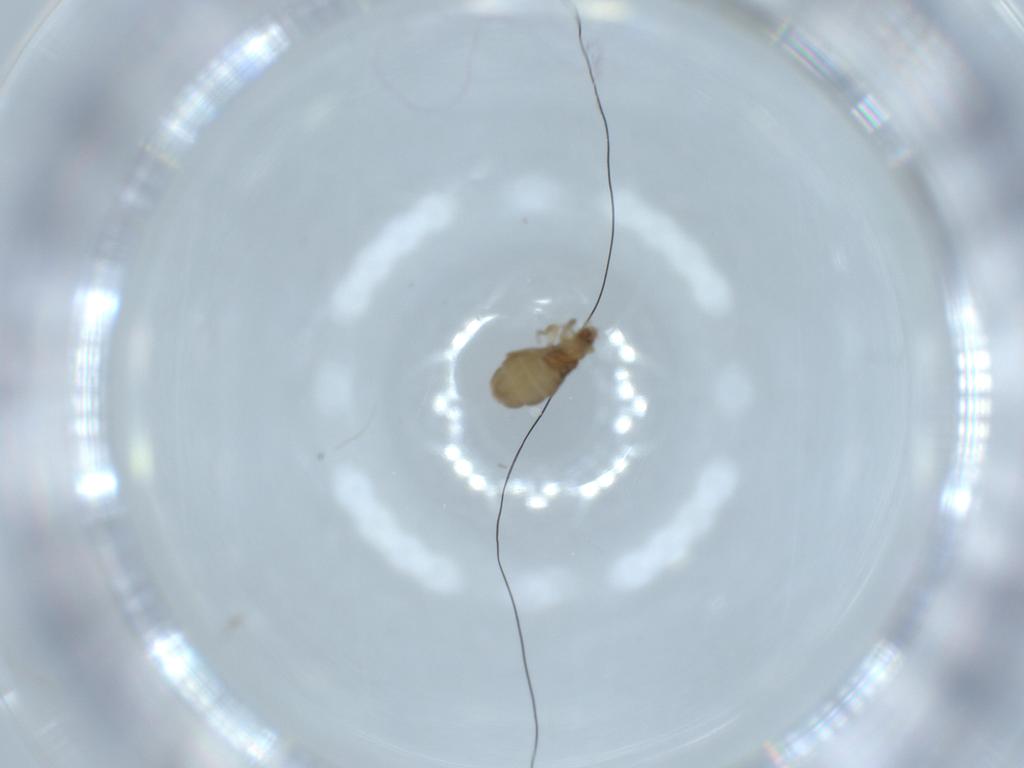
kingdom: Animalia
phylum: Arthropoda
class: Insecta
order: Diptera
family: Phoridae
